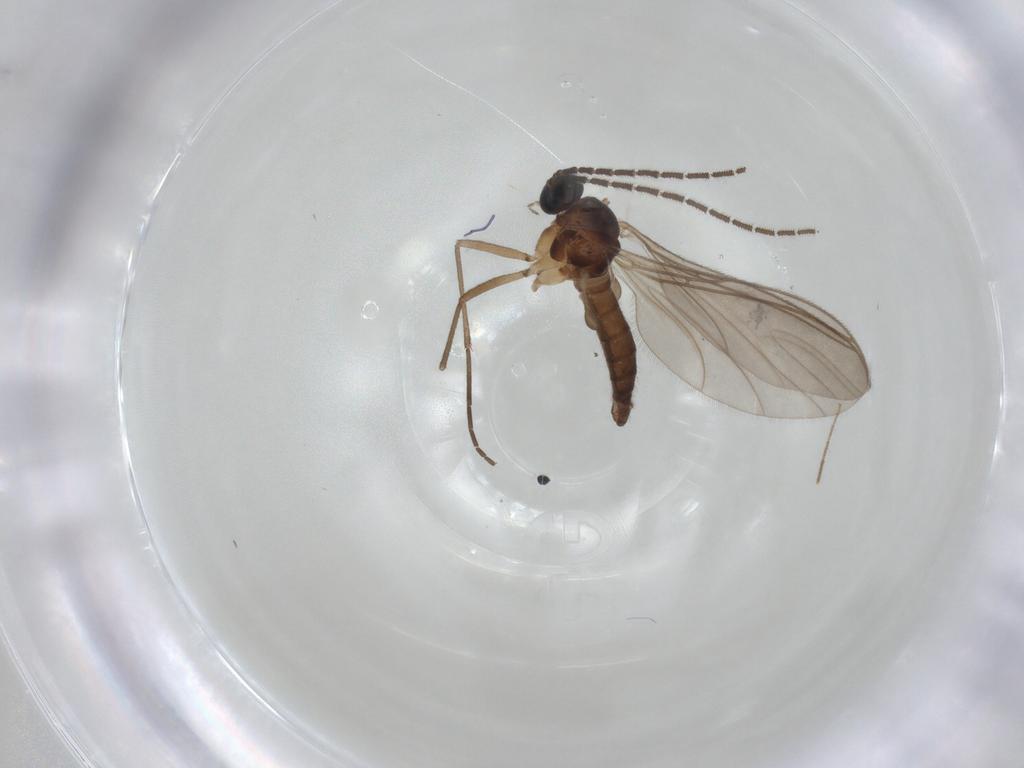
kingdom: Animalia
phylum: Arthropoda
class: Insecta
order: Diptera
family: Sciaridae
